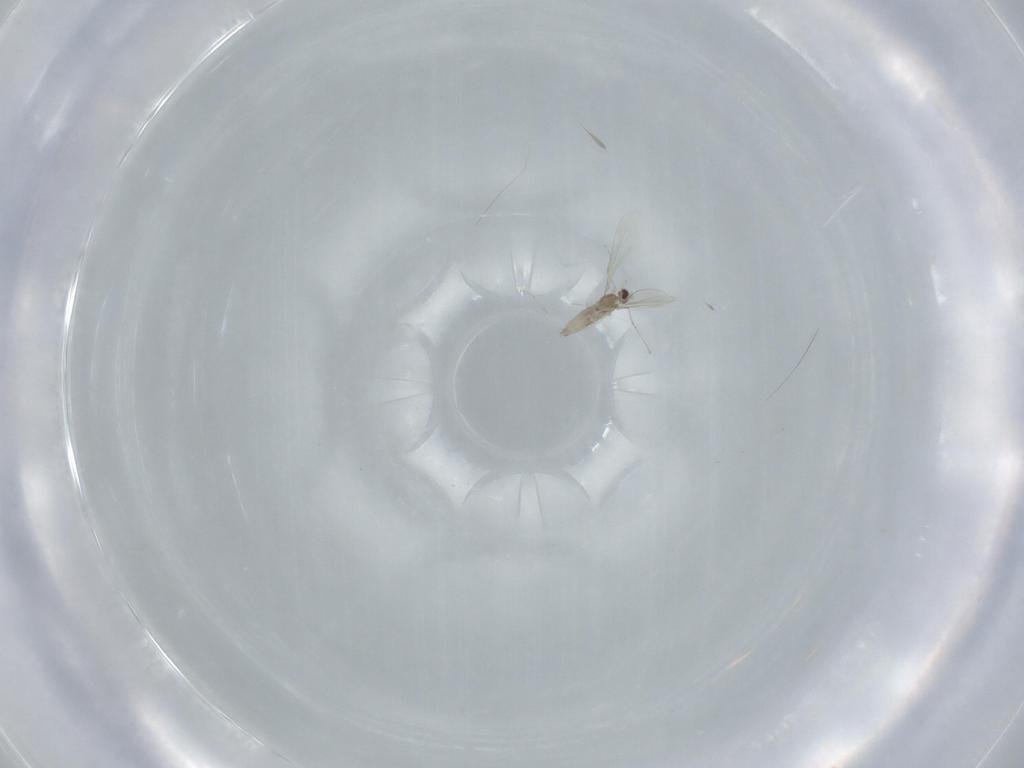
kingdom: Animalia
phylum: Arthropoda
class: Insecta
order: Diptera
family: Cecidomyiidae
